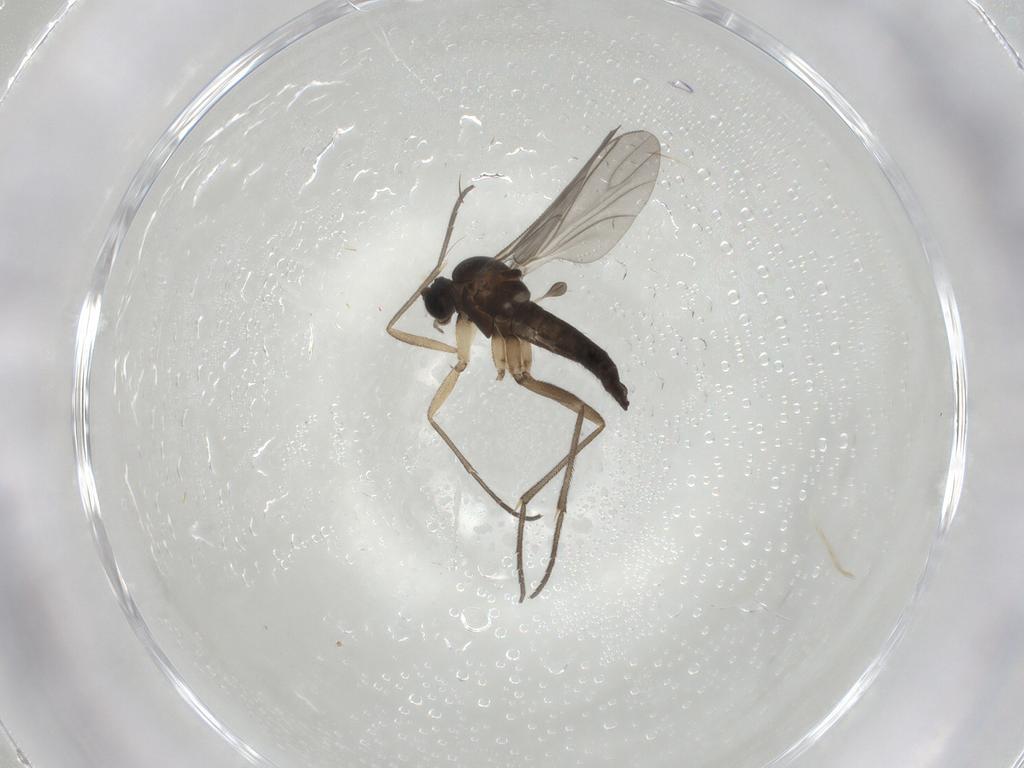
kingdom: Animalia
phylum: Arthropoda
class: Insecta
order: Diptera
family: Sciaridae
